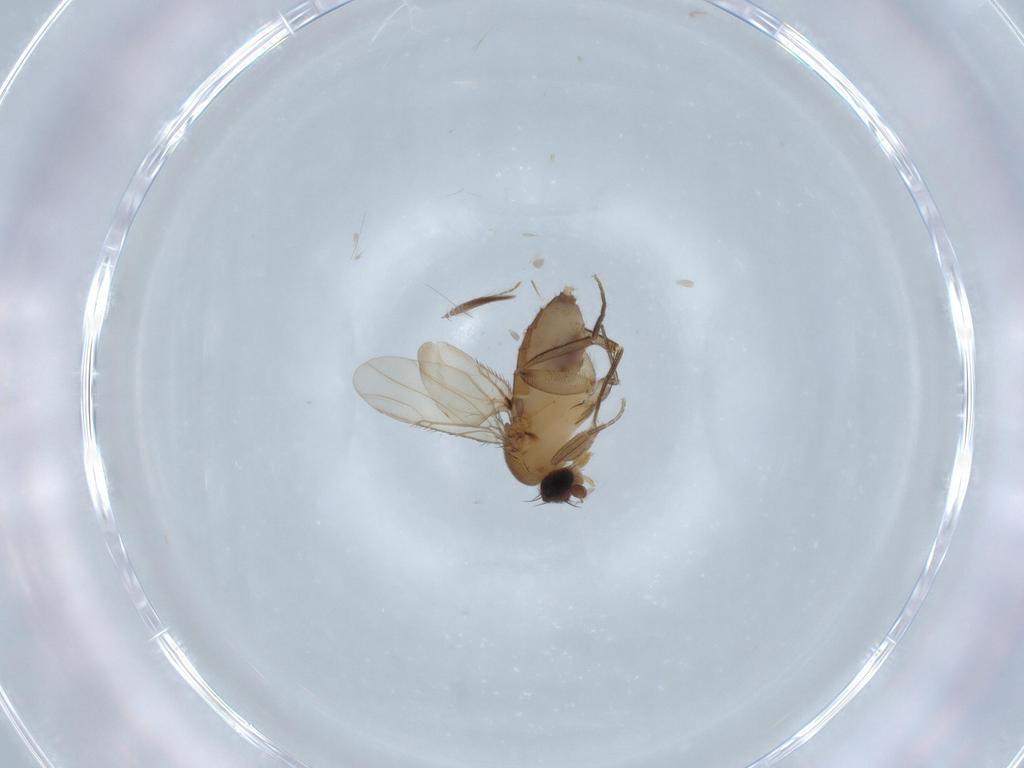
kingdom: Animalia
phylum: Arthropoda
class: Insecta
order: Diptera
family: Phoridae
